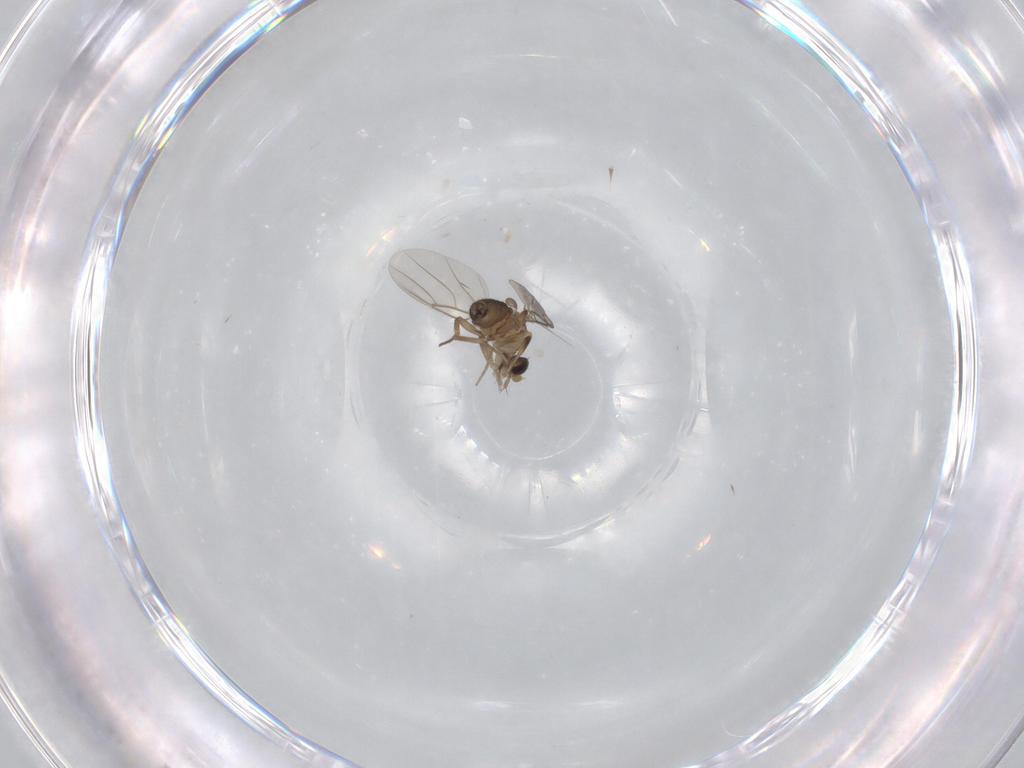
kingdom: Animalia
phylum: Arthropoda
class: Insecta
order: Diptera
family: Phoridae
